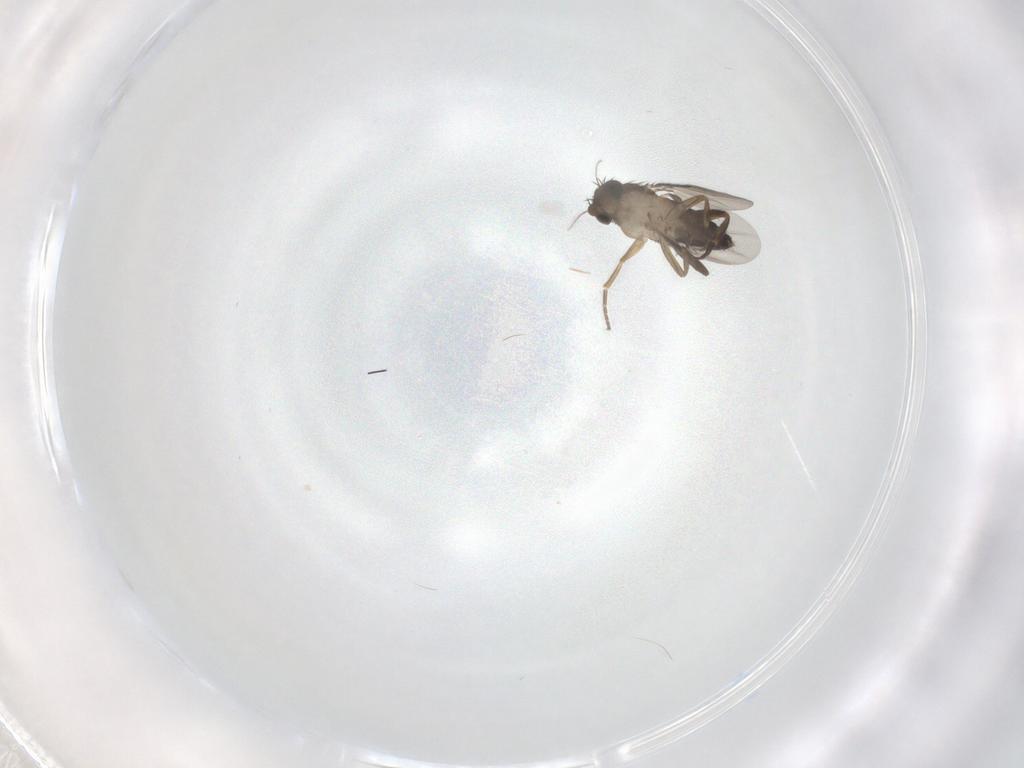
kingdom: Animalia
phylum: Arthropoda
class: Insecta
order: Diptera
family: Phoridae
